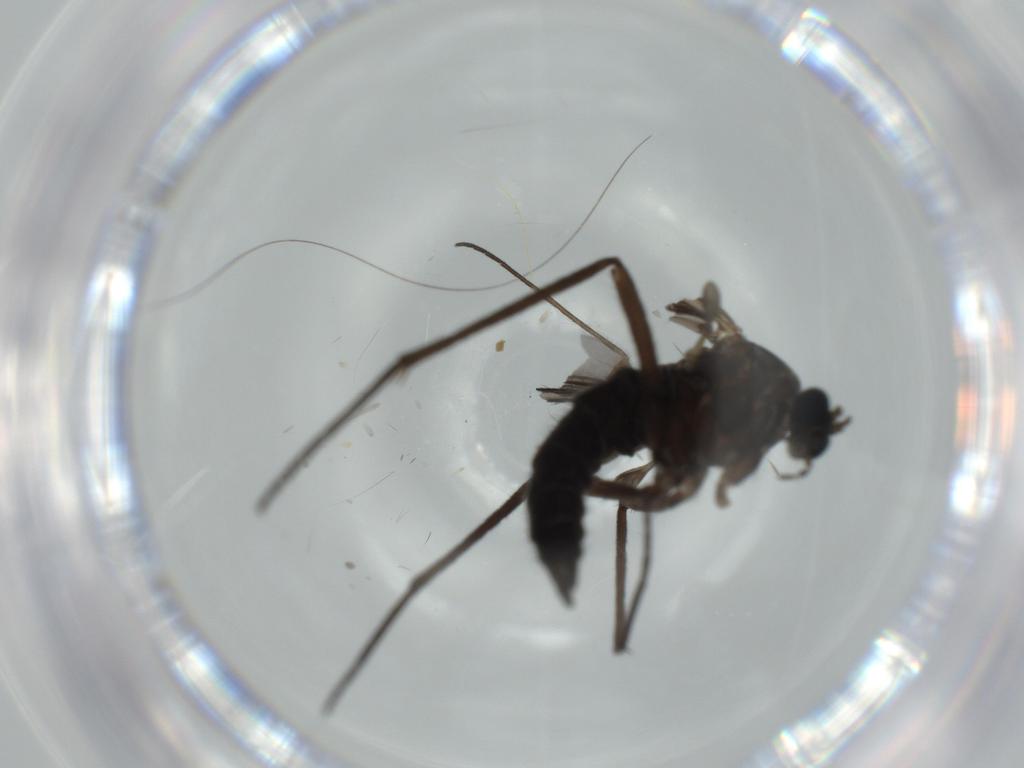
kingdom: Animalia
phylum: Arthropoda
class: Insecta
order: Diptera
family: Sciaridae
